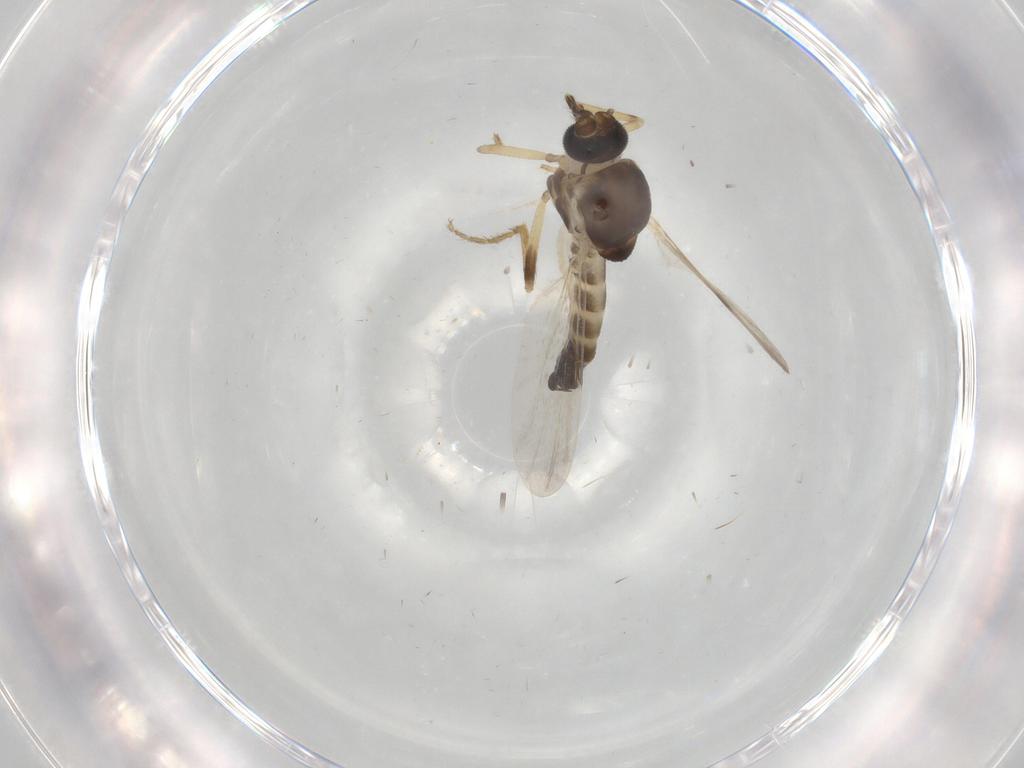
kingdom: Animalia
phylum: Arthropoda
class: Insecta
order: Diptera
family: Ceratopogonidae
